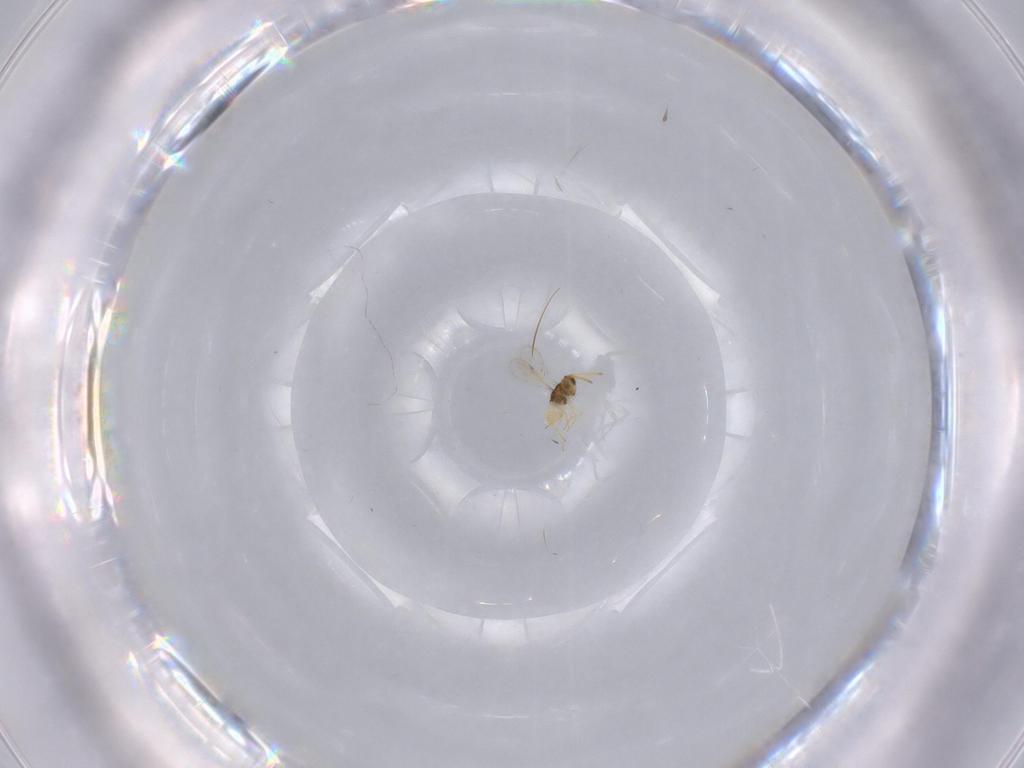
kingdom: Animalia
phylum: Arthropoda
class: Insecta
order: Hymenoptera
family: Aphelinidae
